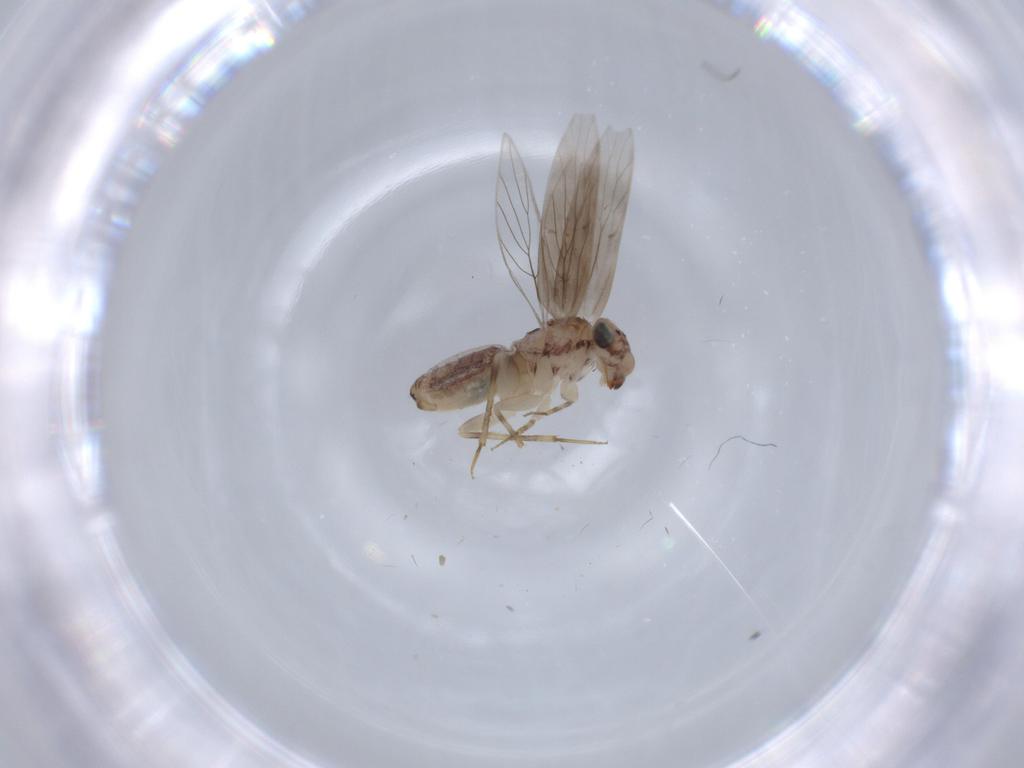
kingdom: Animalia
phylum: Arthropoda
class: Insecta
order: Psocodea
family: Lepidopsocidae
